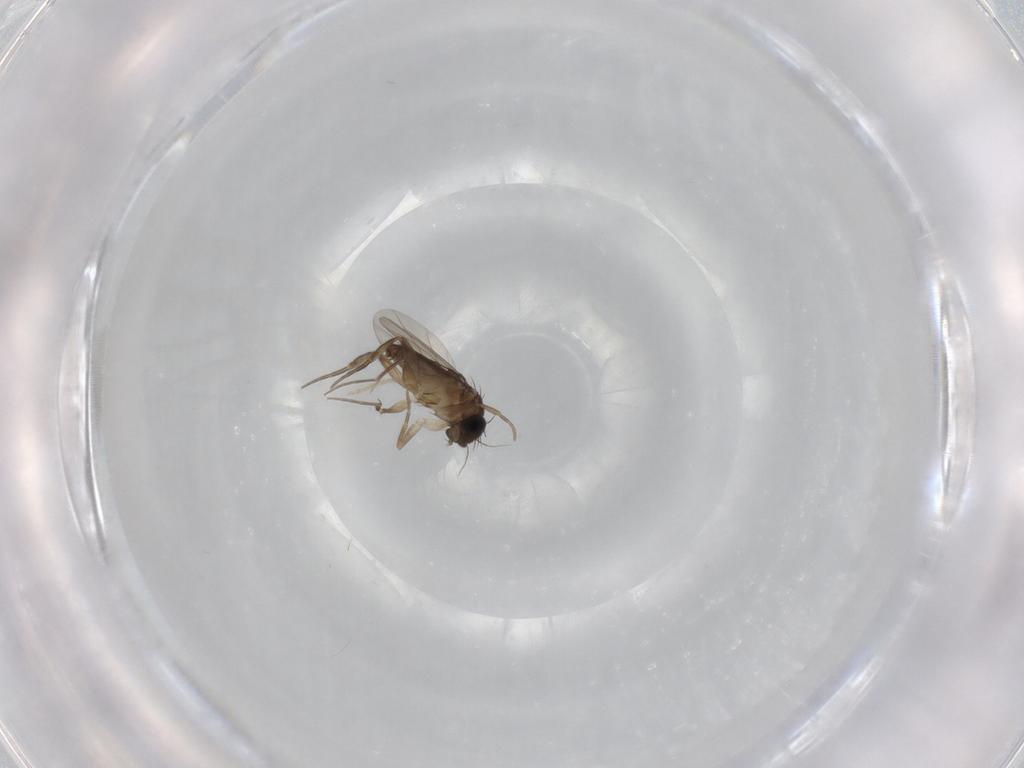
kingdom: Animalia
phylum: Arthropoda
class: Insecta
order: Diptera
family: Phoridae
